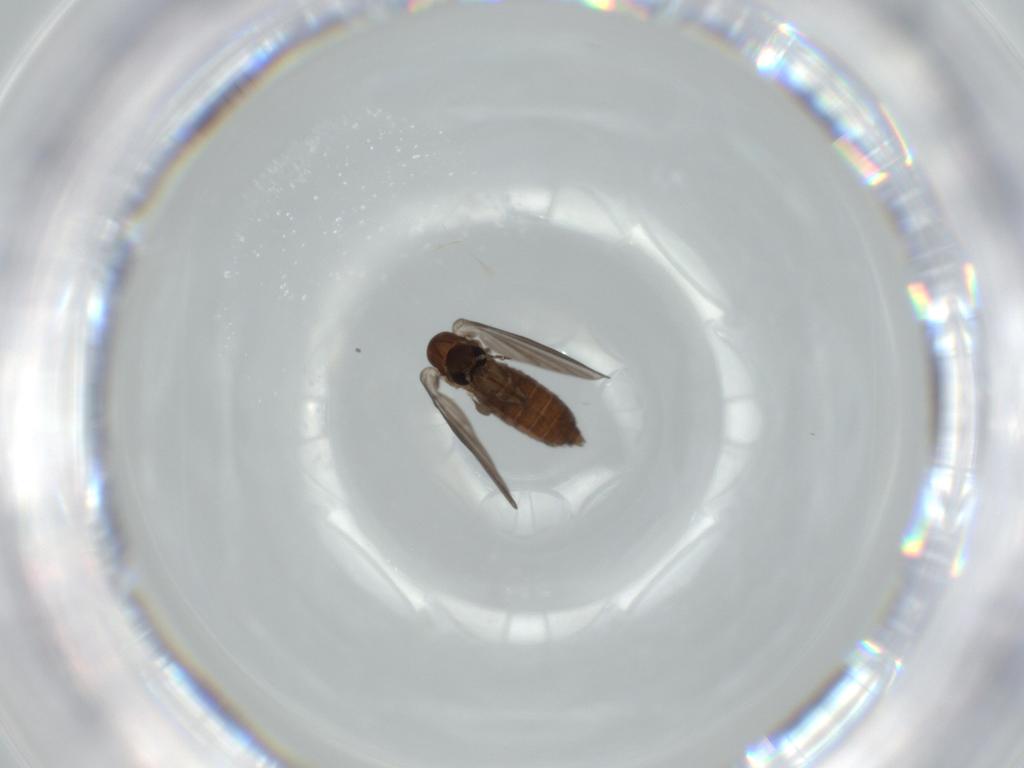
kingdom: Animalia
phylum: Arthropoda
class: Insecta
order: Diptera
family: Psychodidae
